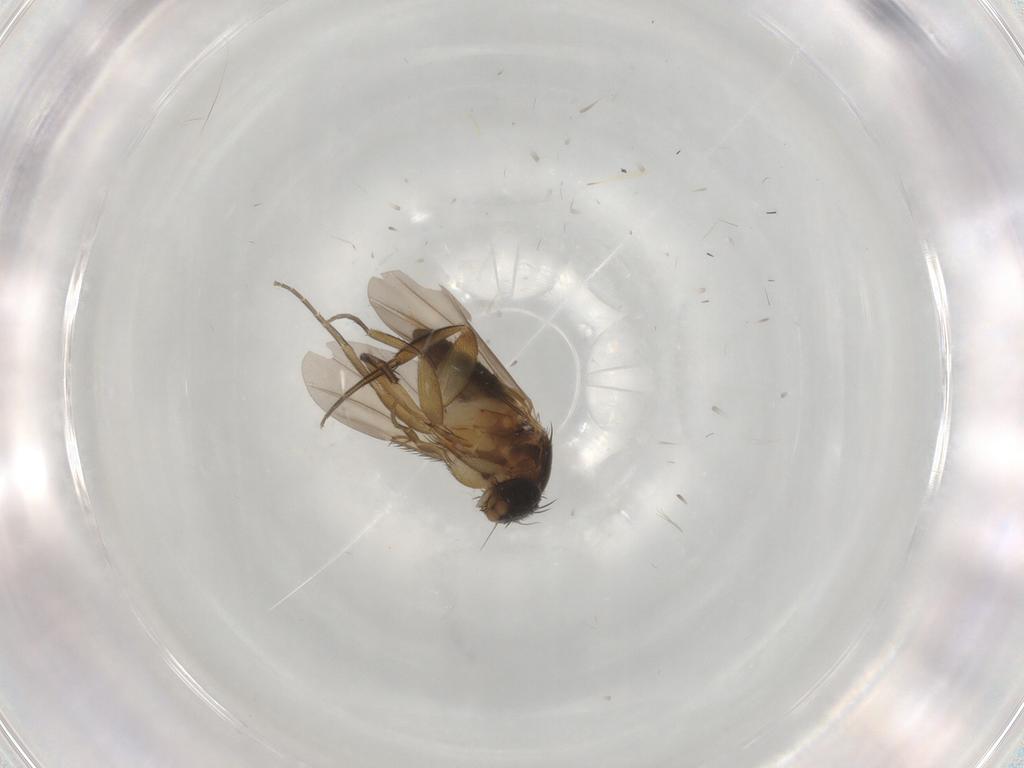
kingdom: Animalia
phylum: Arthropoda
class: Insecta
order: Diptera
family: Phoridae
